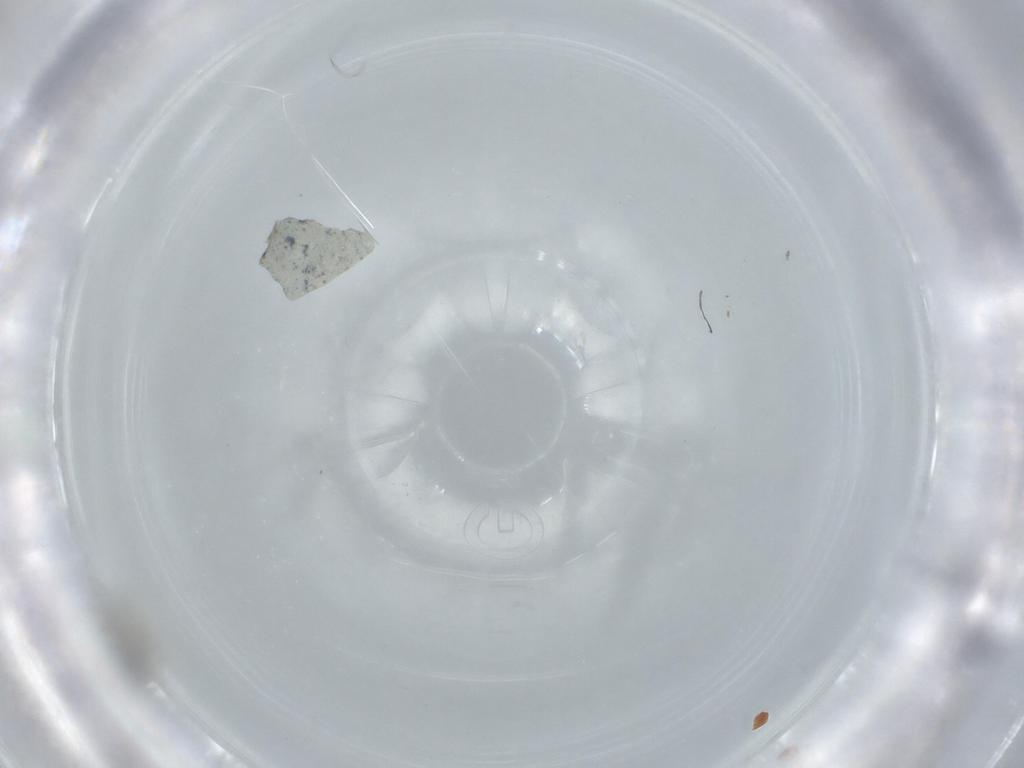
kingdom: Animalia
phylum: Arthropoda
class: Insecta
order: Diptera
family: Cecidomyiidae
